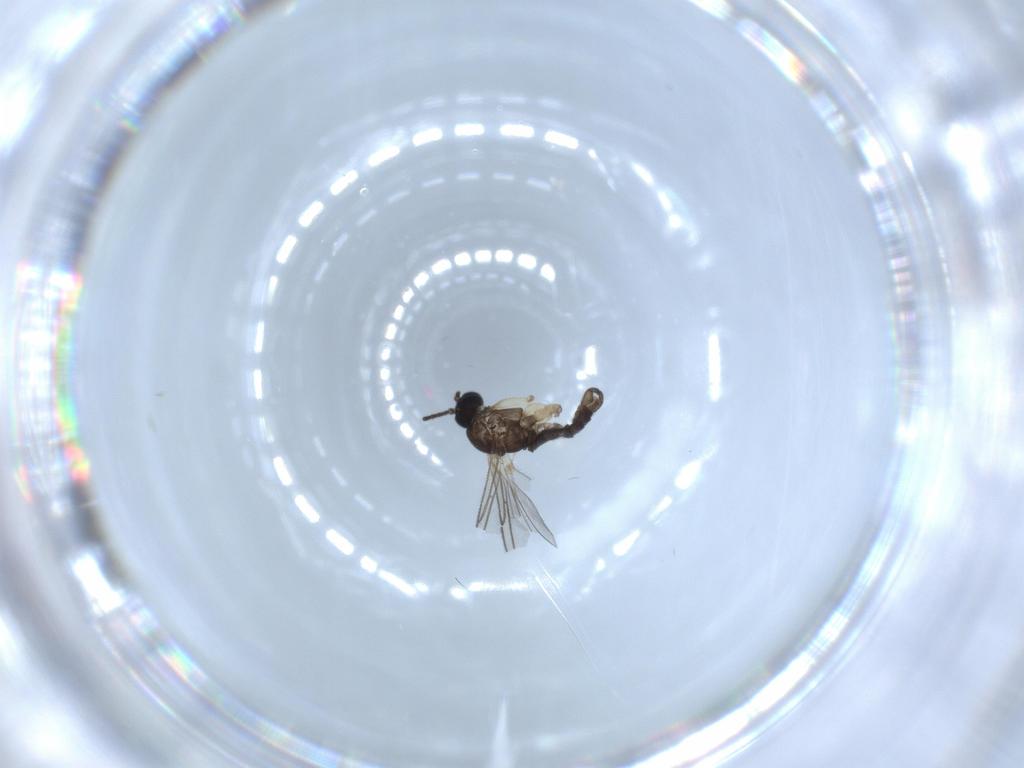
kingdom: Animalia
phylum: Arthropoda
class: Insecta
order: Diptera
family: Sciaridae
